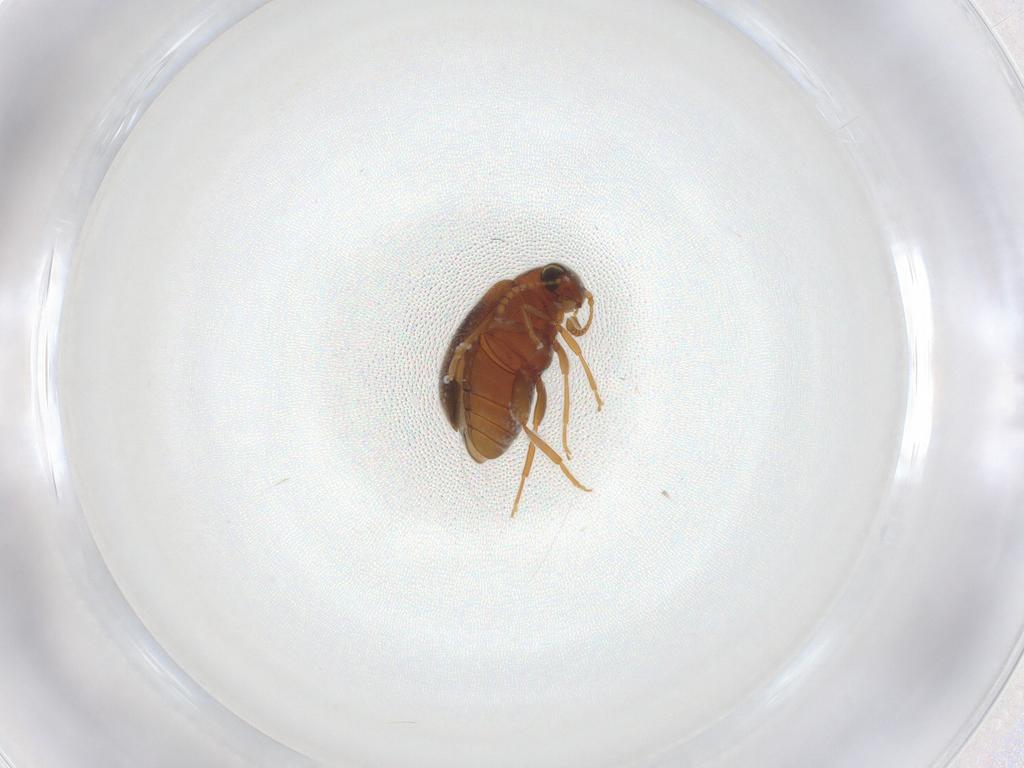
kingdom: Animalia
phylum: Arthropoda
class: Insecta
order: Coleoptera
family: Aderidae
